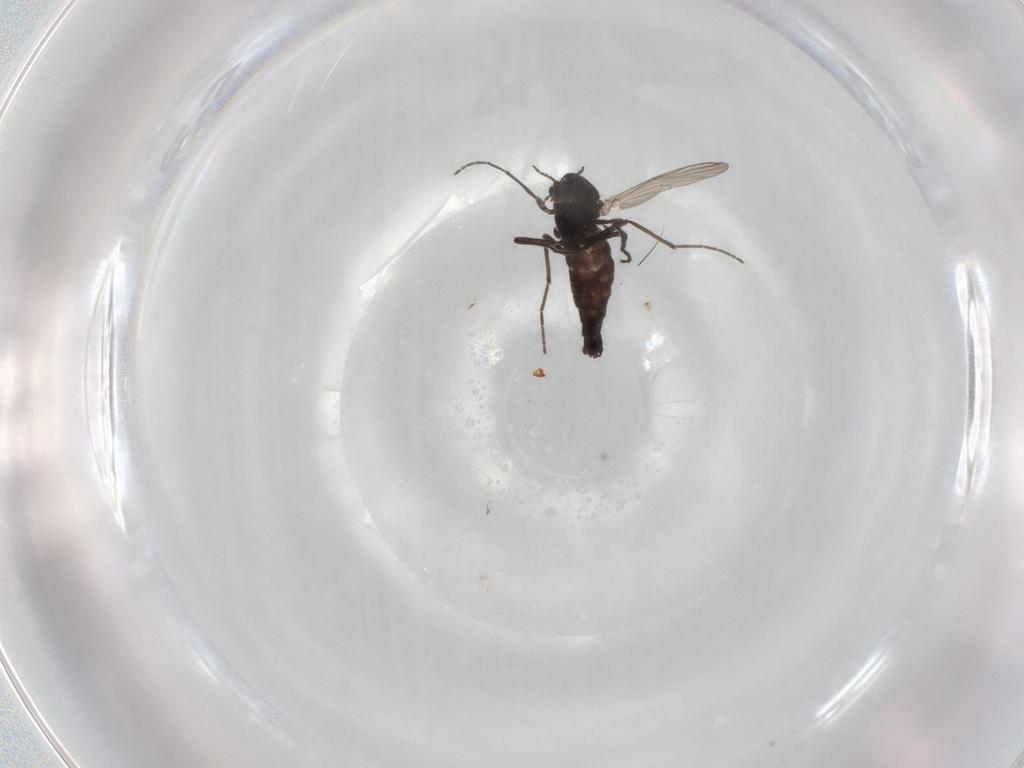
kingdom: Animalia
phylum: Arthropoda
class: Insecta
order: Diptera
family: Chironomidae
